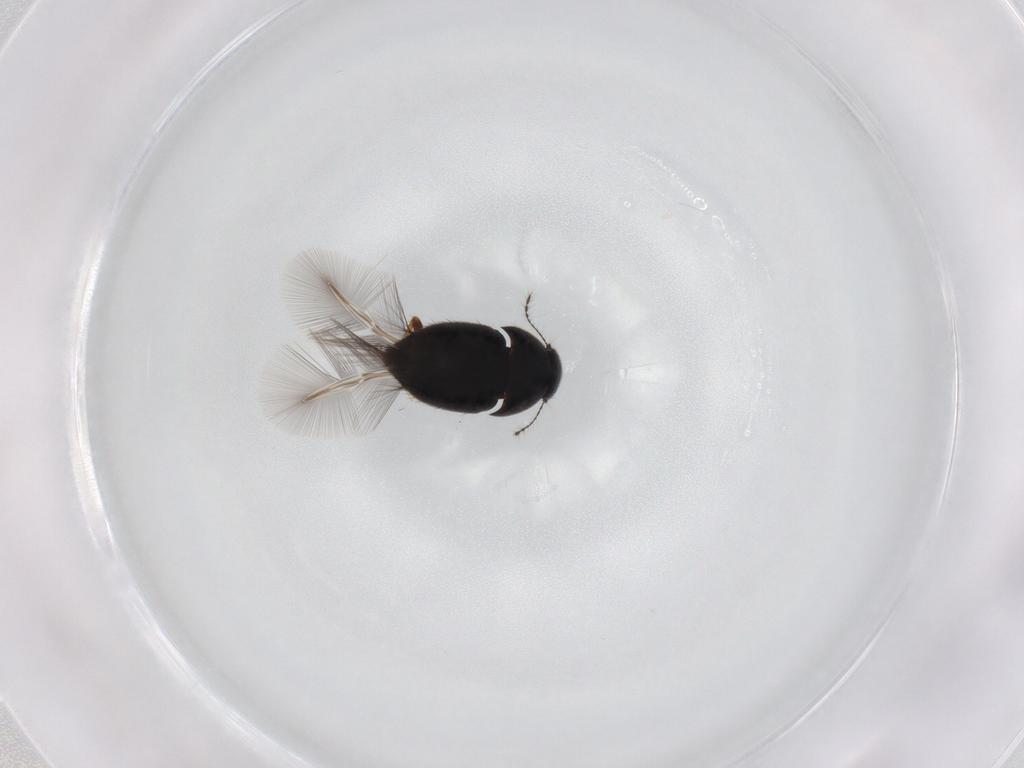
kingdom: Animalia
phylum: Arthropoda
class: Insecta
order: Coleoptera
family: Ptiliidae
